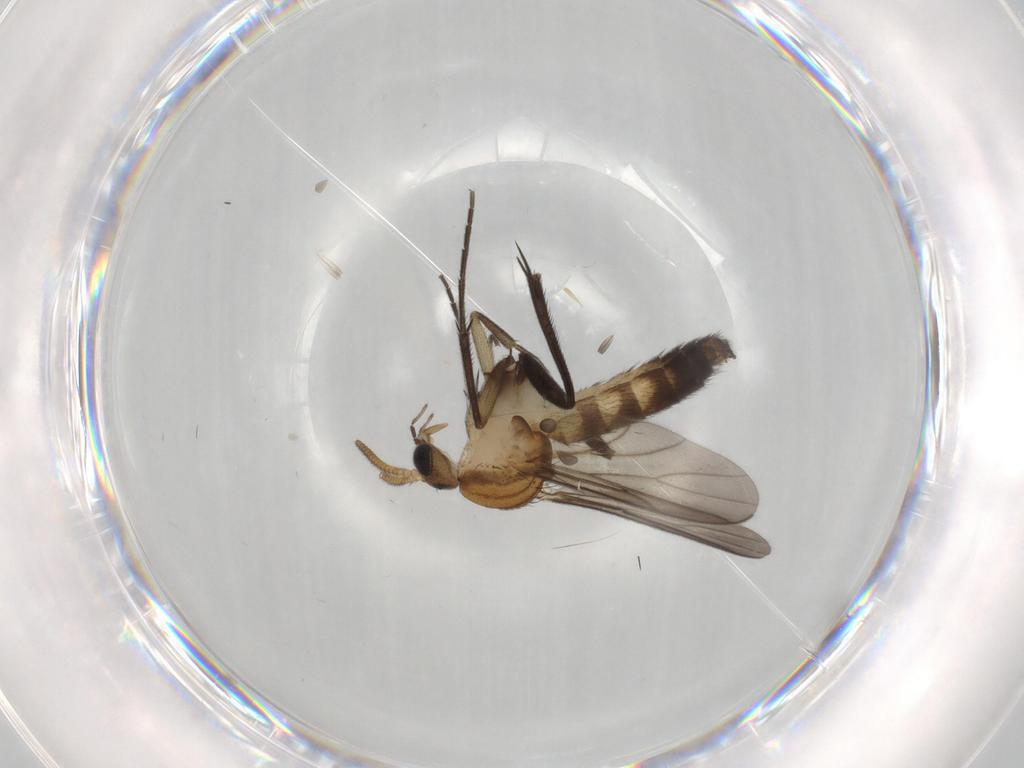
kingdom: Animalia
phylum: Arthropoda
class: Insecta
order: Diptera
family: Mycetophilidae
